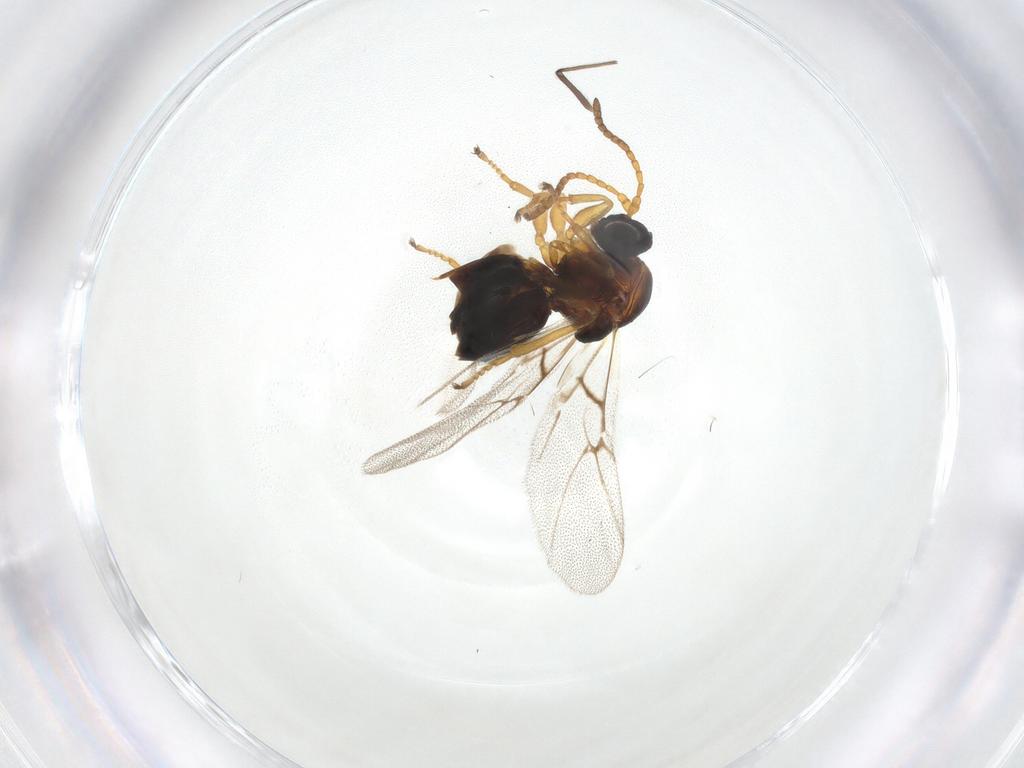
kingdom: Animalia
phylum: Arthropoda
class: Insecta
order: Hymenoptera
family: Cynipidae
